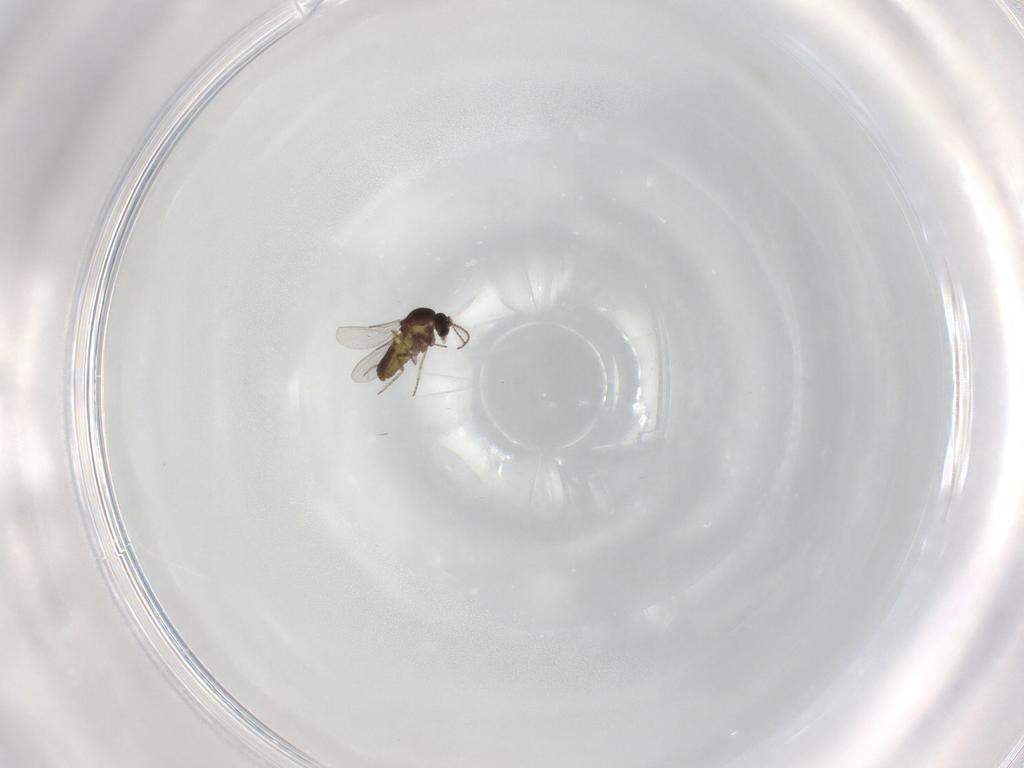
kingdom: Animalia
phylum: Arthropoda
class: Insecta
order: Diptera
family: Ceratopogonidae
